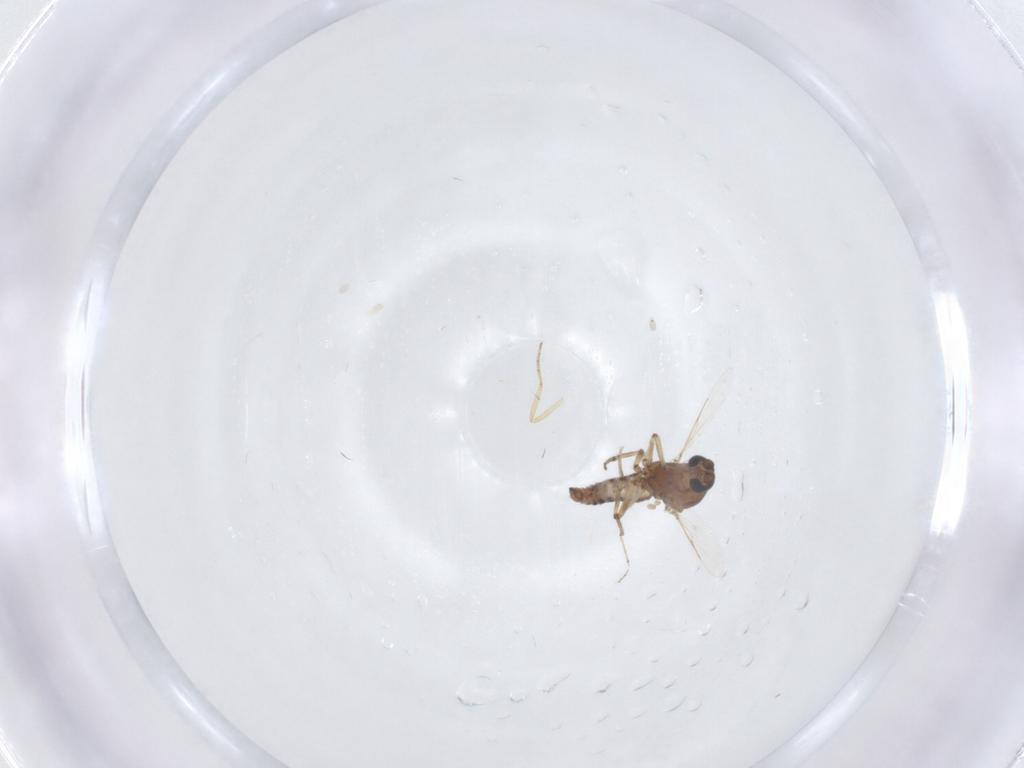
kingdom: Animalia
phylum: Arthropoda
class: Insecta
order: Diptera
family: Ceratopogonidae
